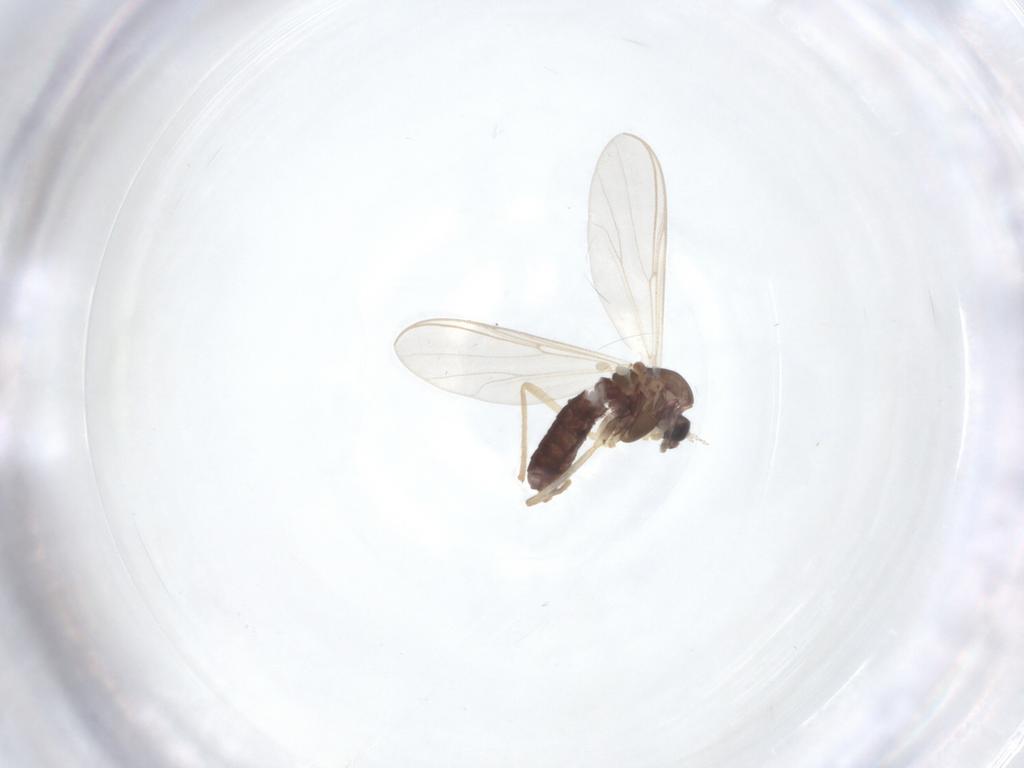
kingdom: Animalia
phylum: Arthropoda
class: Insecta
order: Diptera
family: Chironomidae
